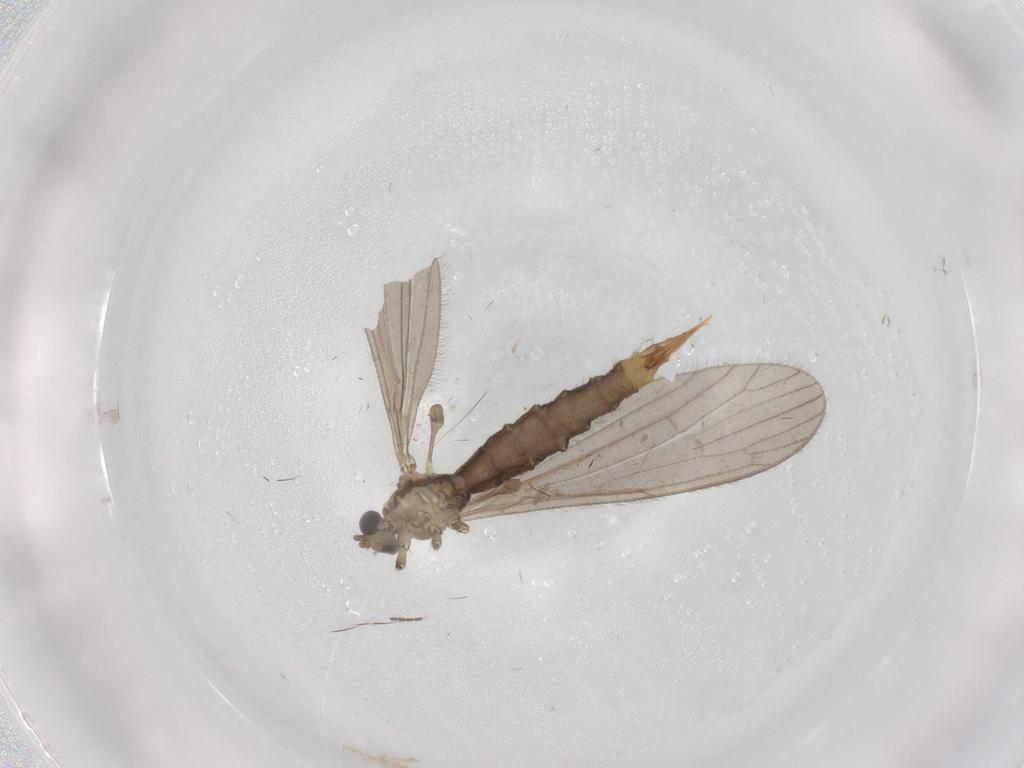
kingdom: Animalia
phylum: Arthropoda
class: Insecta
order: Diptera
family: Limoniidae
